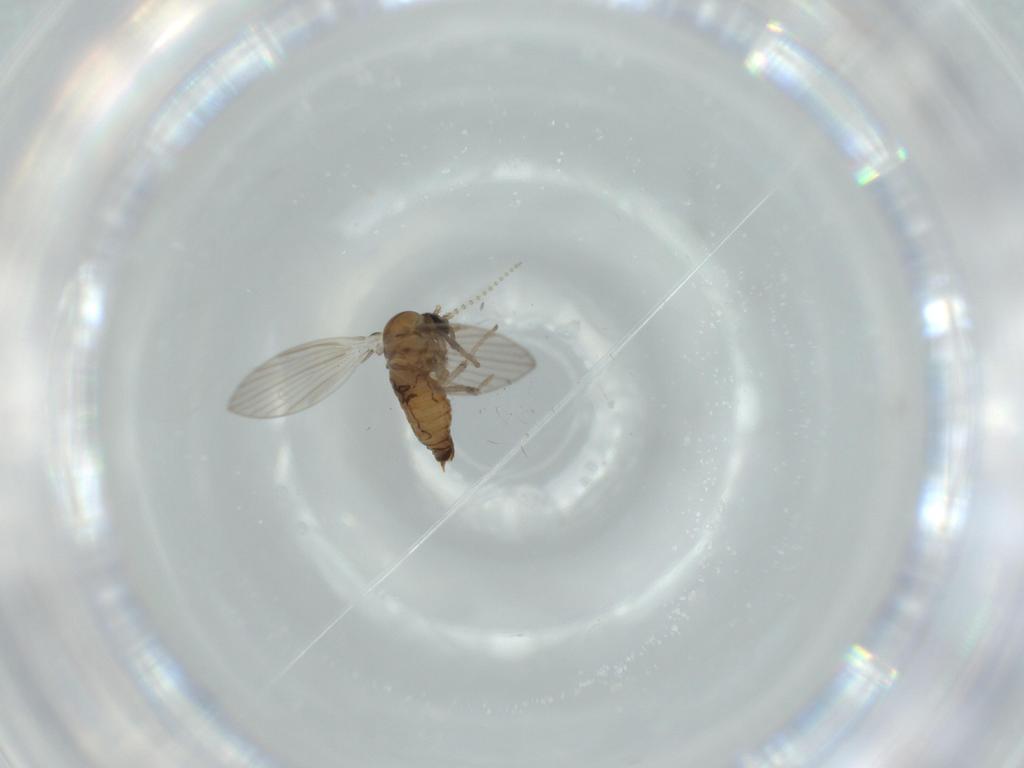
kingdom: Animalia
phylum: Arthropoda
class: Insecta
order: Diptera
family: Psychodidae
